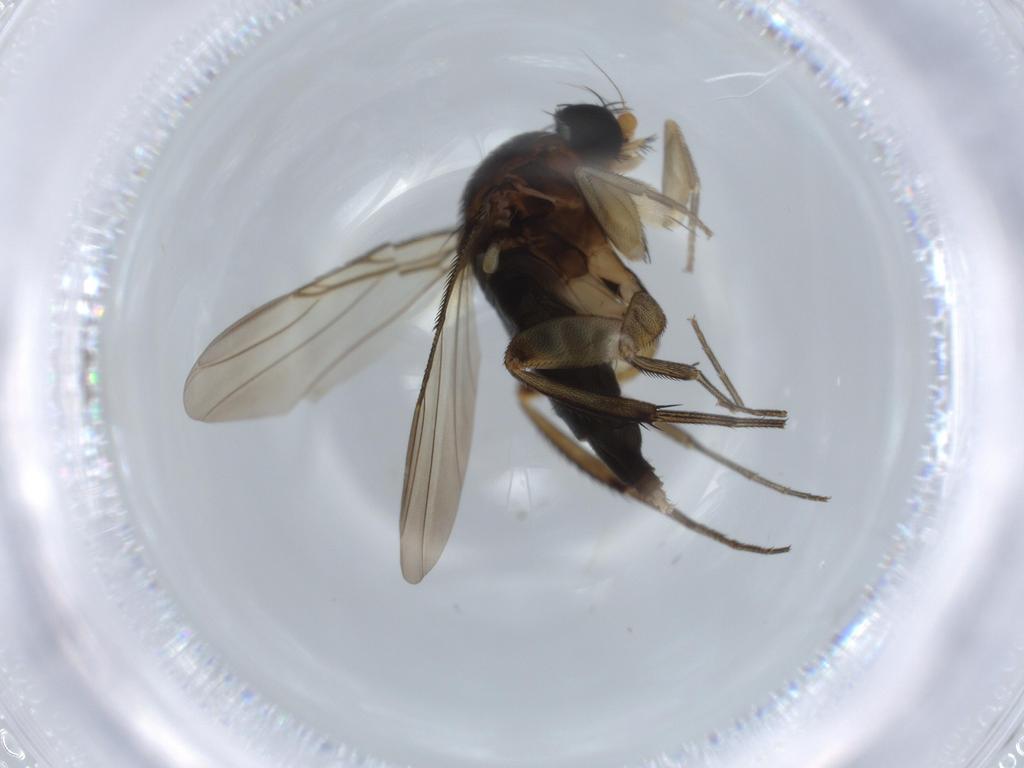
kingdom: Animalia
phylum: Arthropoda
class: Insecta
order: Diptera
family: Phoridae
